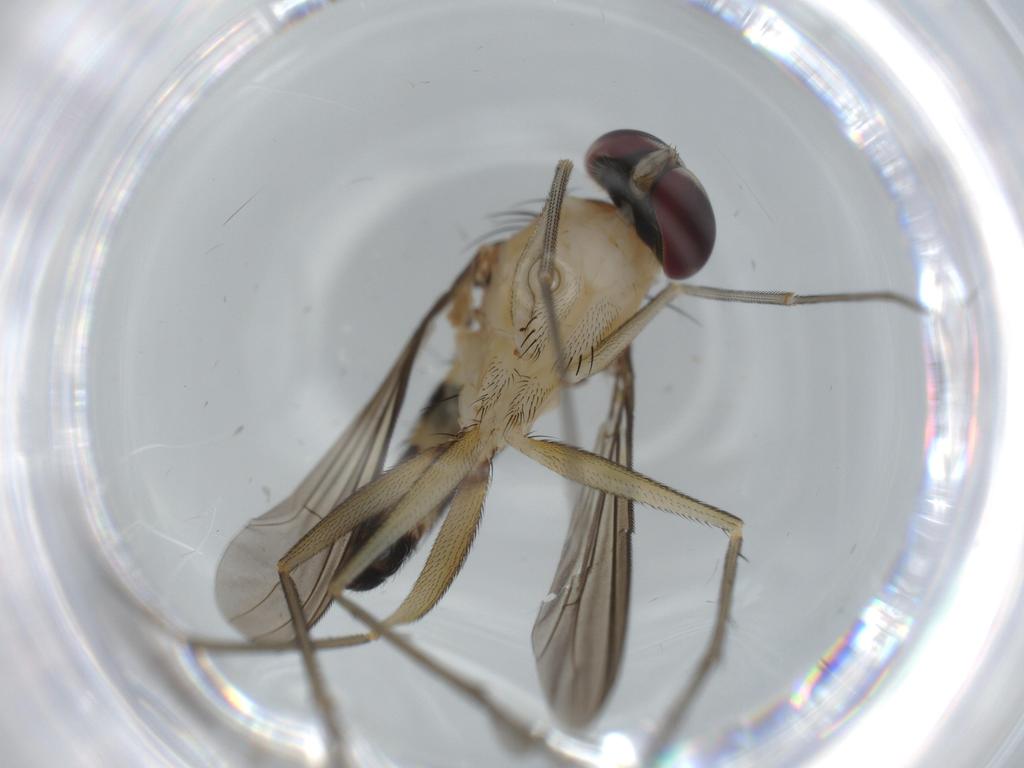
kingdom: Animalia
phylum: Arthropoda
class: Insecta
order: Diptera
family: Dolichopodidae
